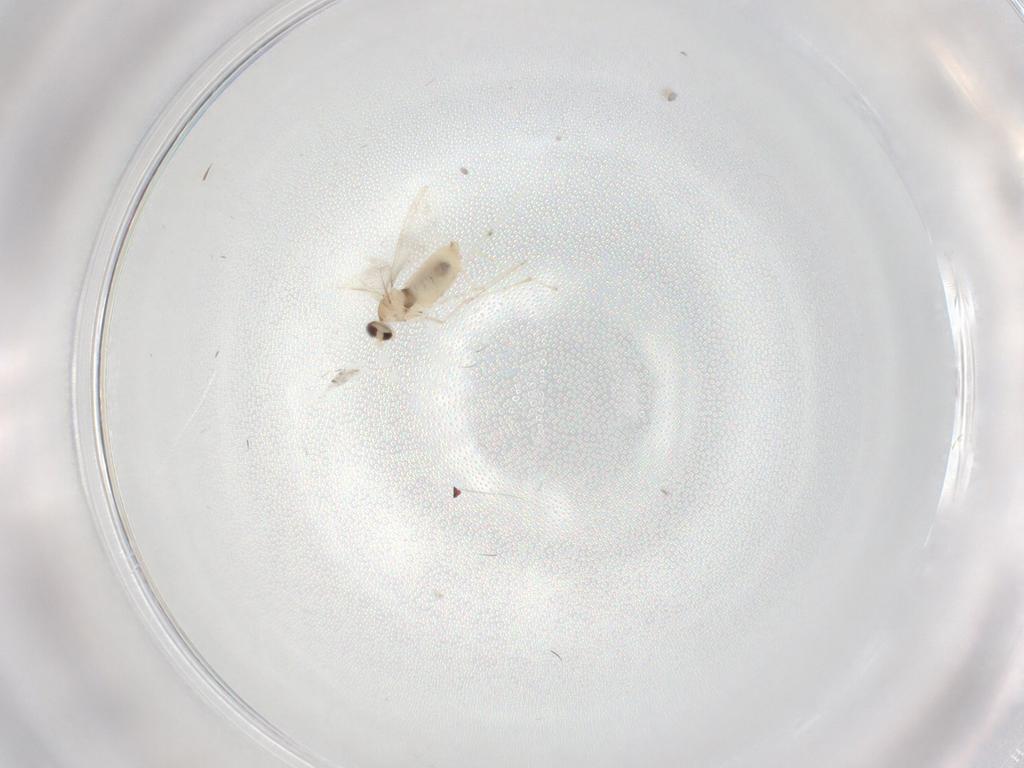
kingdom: Animalia
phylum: Arthropoda
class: Insecta
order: Diptera
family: Cecidomyiidae
